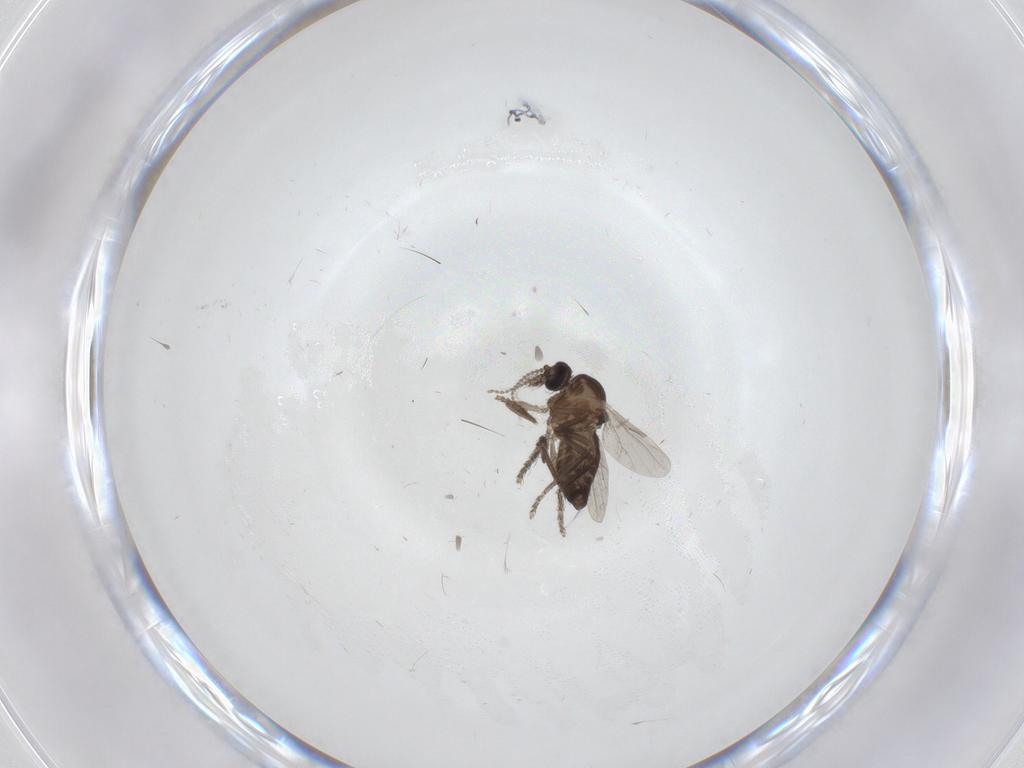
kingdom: Animalia
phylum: Arthropoda
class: Insecta
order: Diptera
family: Ceratopogonidae
